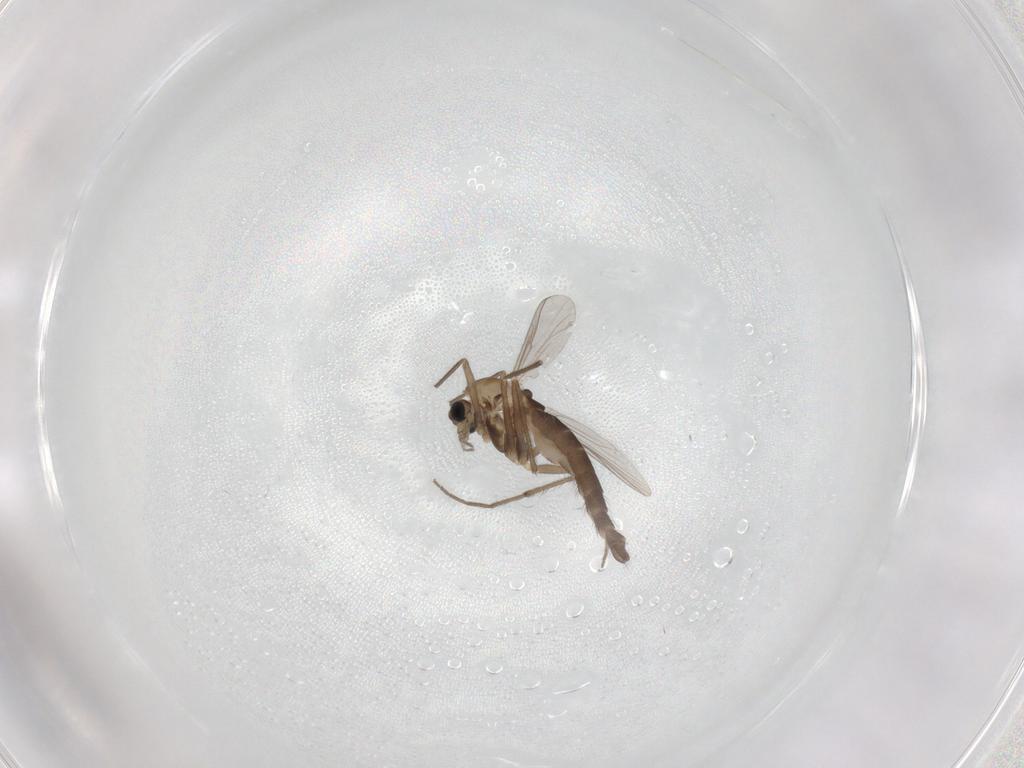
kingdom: Animalia
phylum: Arthropoda
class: Insecta
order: Diptera
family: Chironomidae
